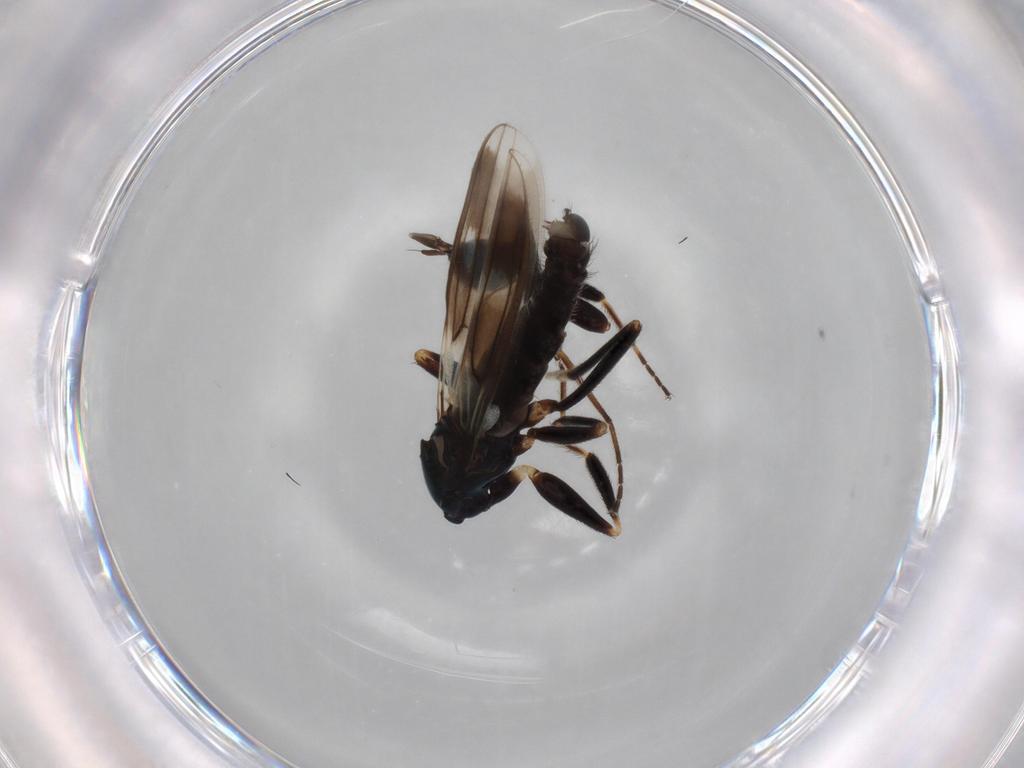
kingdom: Animalia
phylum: Arthropoda
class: Insecta
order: Diptera
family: Hybotidae
